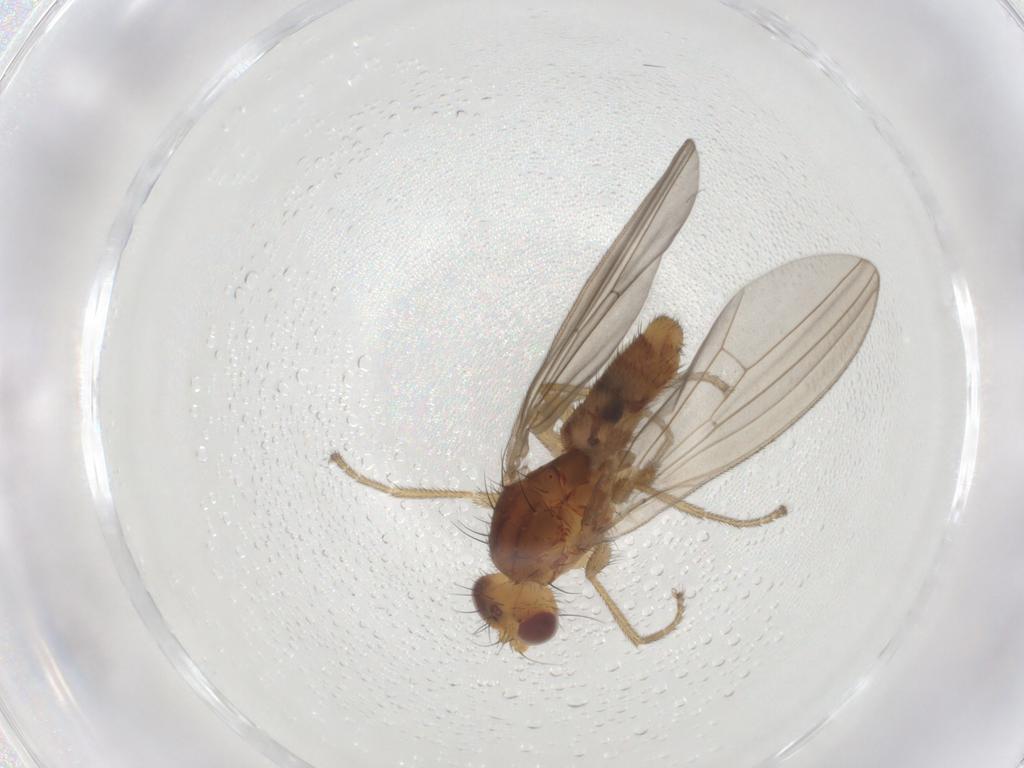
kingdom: Animalia
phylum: Arthropoda
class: Insecta
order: Diptera
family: Natalimyzidae
